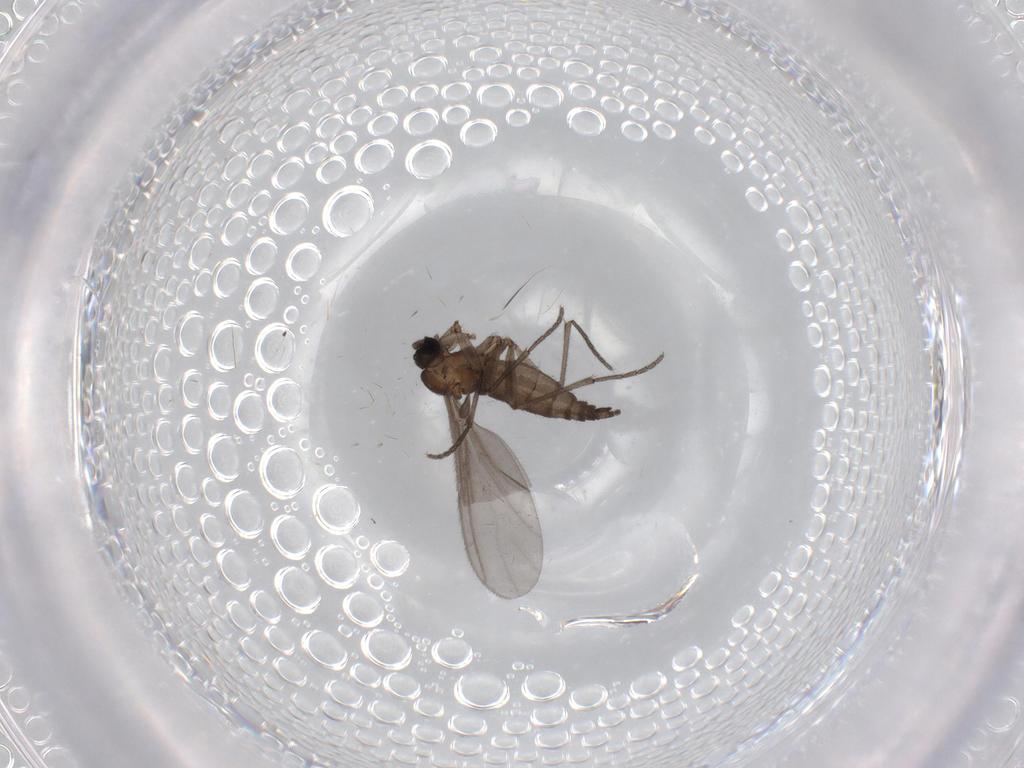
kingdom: Animalia
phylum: Arthropoda
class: Insecta
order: Diptera
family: Sciaridae
